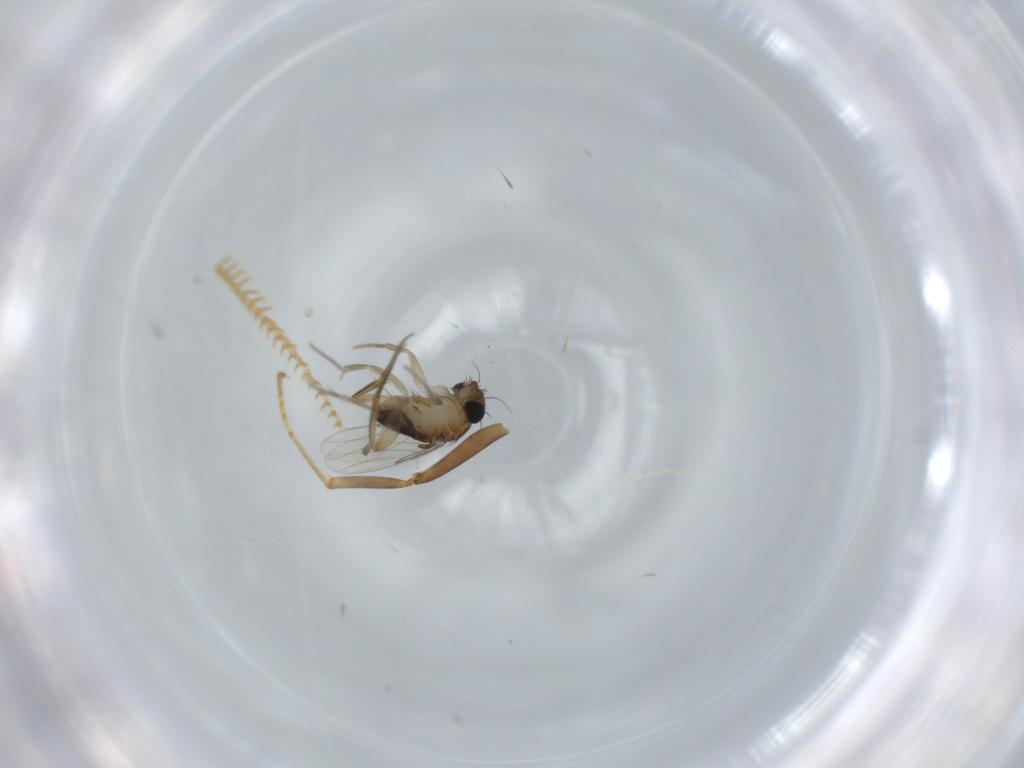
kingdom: Animalia
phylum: Arthropoda
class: Insecta
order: Diptera
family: Phoridae
